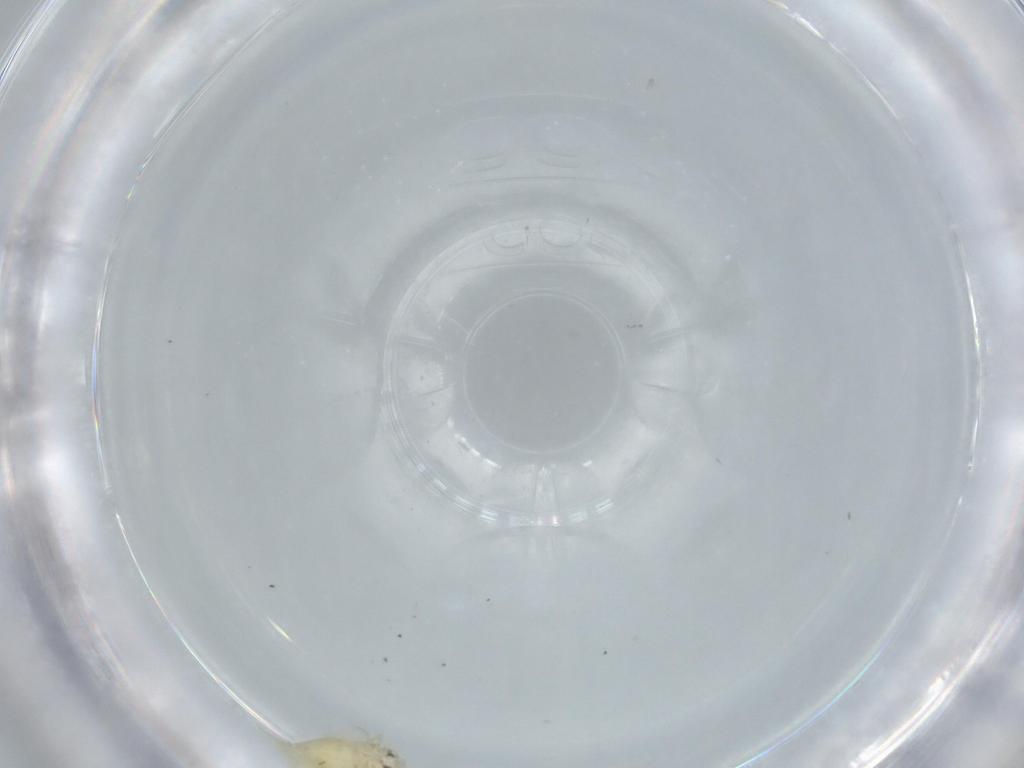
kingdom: Animalia
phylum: Arthropoda
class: Insecta
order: Hemiptera
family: Aleyrodidae
